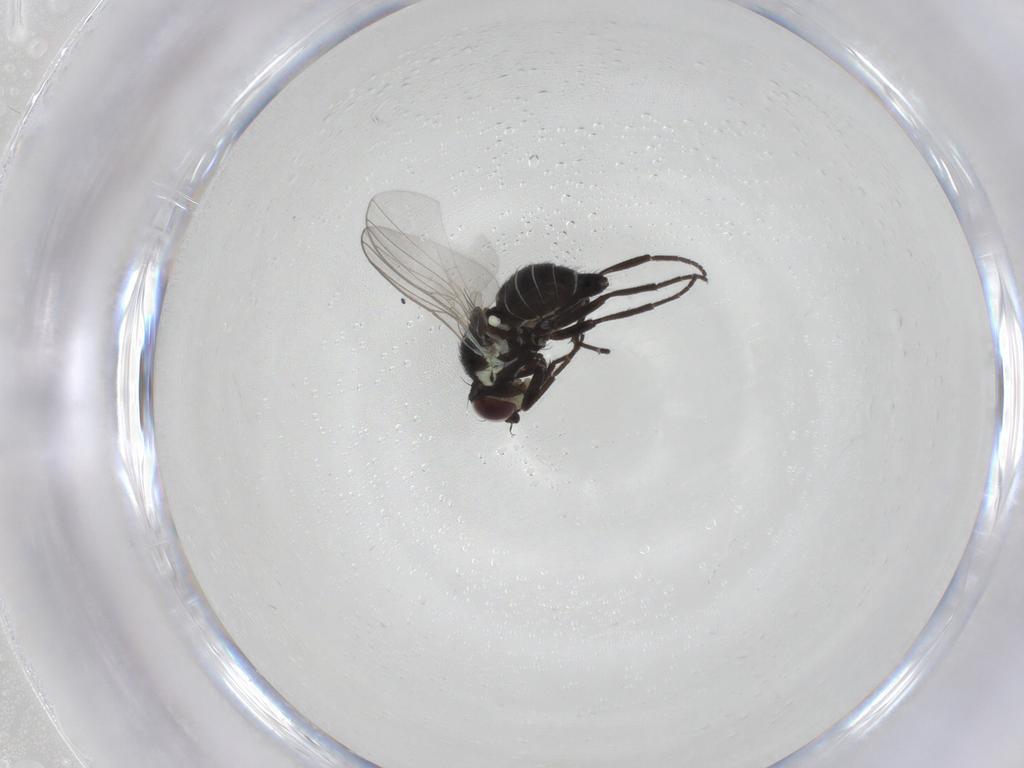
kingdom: Animalia
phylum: Arthropoda
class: Insecta
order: Diptera
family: Agromyzidae
